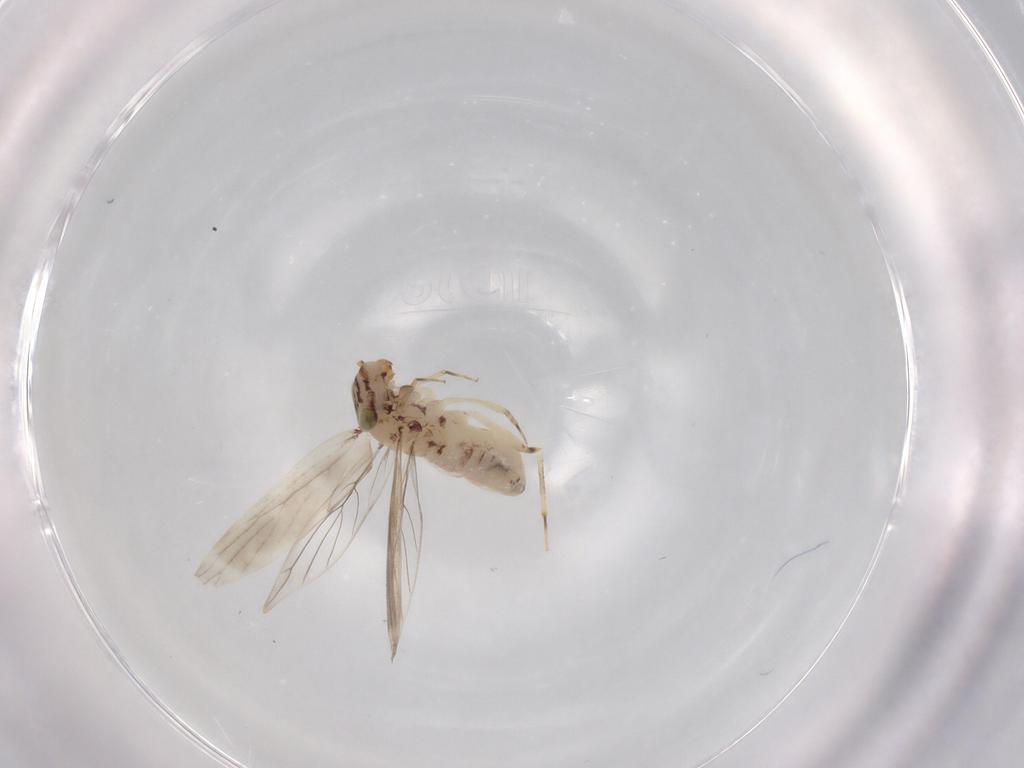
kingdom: Animalia
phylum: Arthropoda
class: Insecta
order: Psocodea
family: Lepidopsocidae
